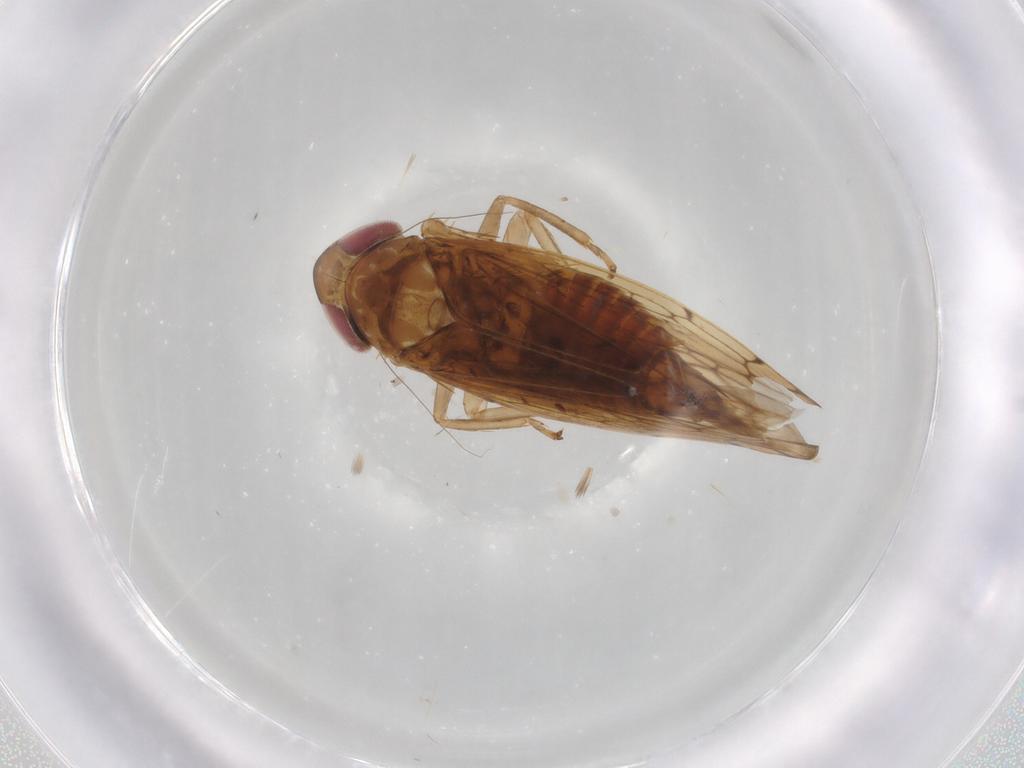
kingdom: Animalia
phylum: Arthropoda
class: Insecta
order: Hemiptera
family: Cicadellidae
